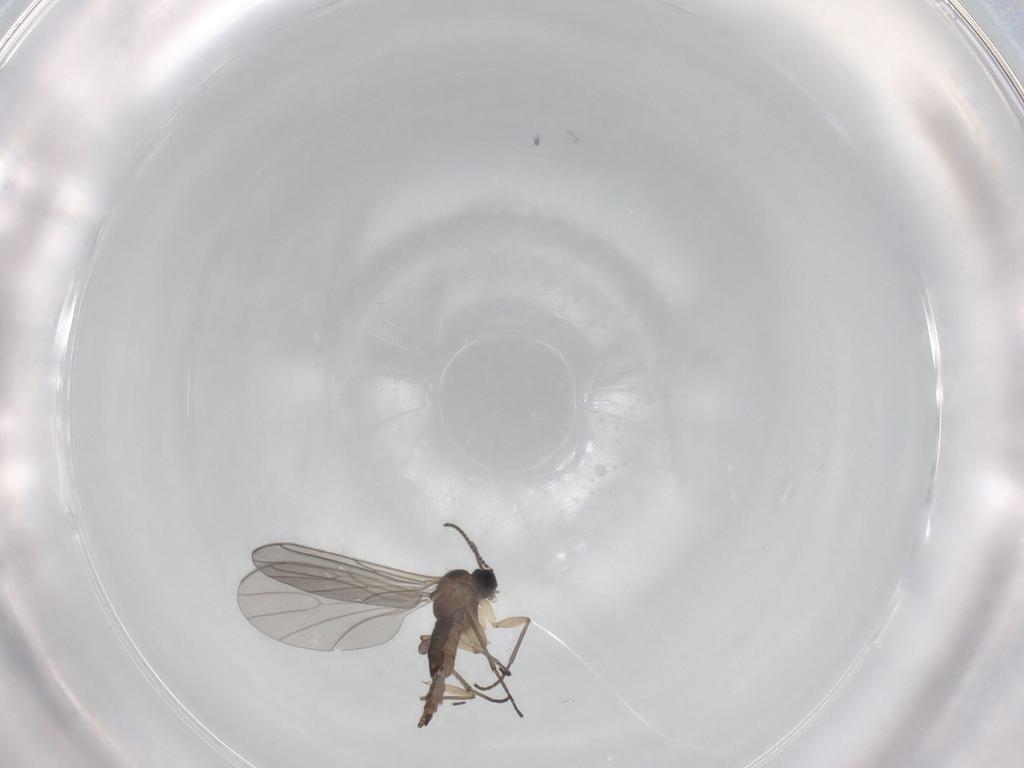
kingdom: Animalia
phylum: Arthropoda
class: Insecta
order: Diptera
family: Sciaridae
